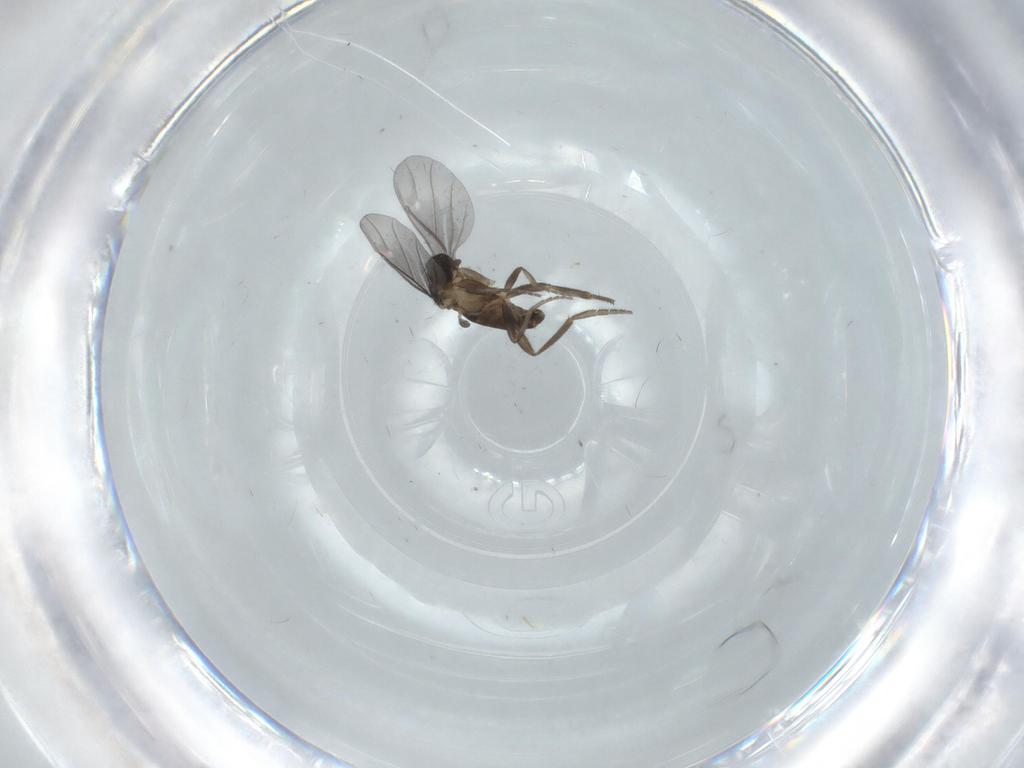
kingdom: Animalia
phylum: Arthropoda
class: Insecta
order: Diptera
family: Phoridae
